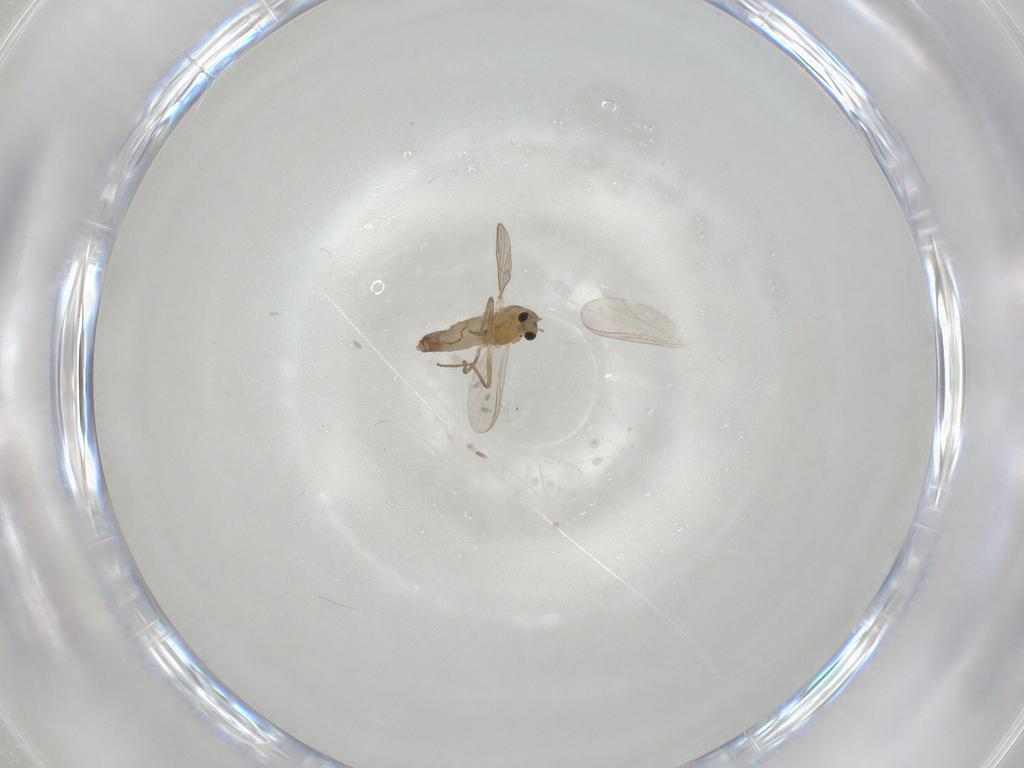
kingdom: Animalia
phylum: Arthropoda
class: Insecta
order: Diptera
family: Chironomidae
